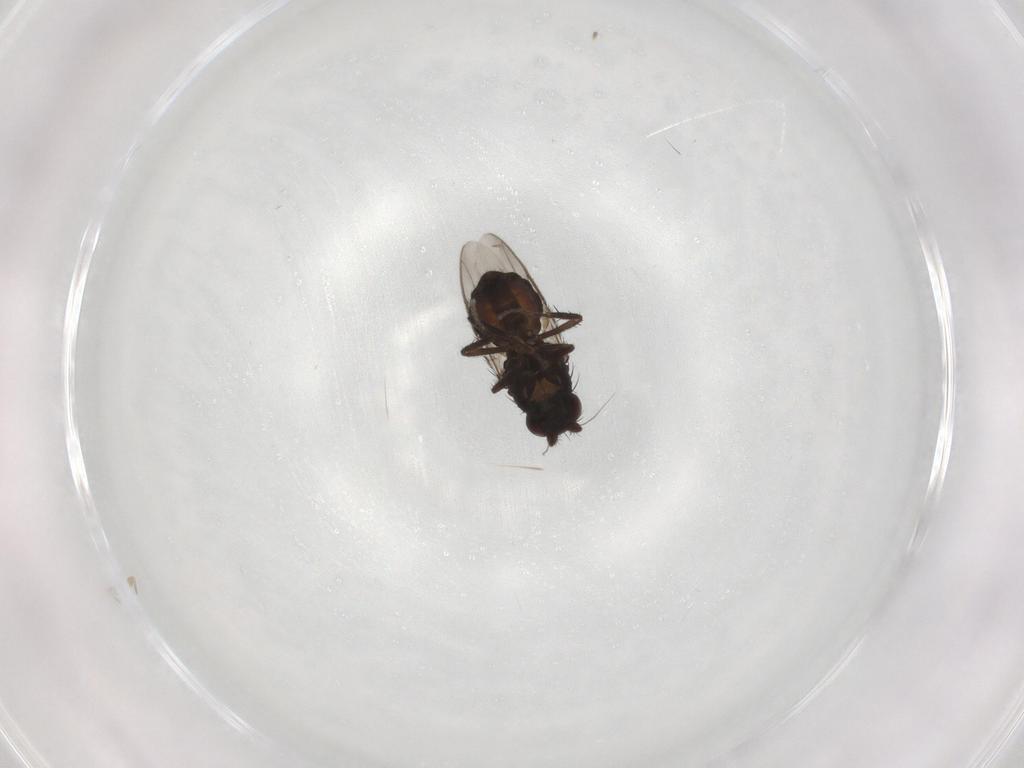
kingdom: Animalia
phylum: Arthropoda
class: Insecta
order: Diptera
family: Sphaeroceridae
